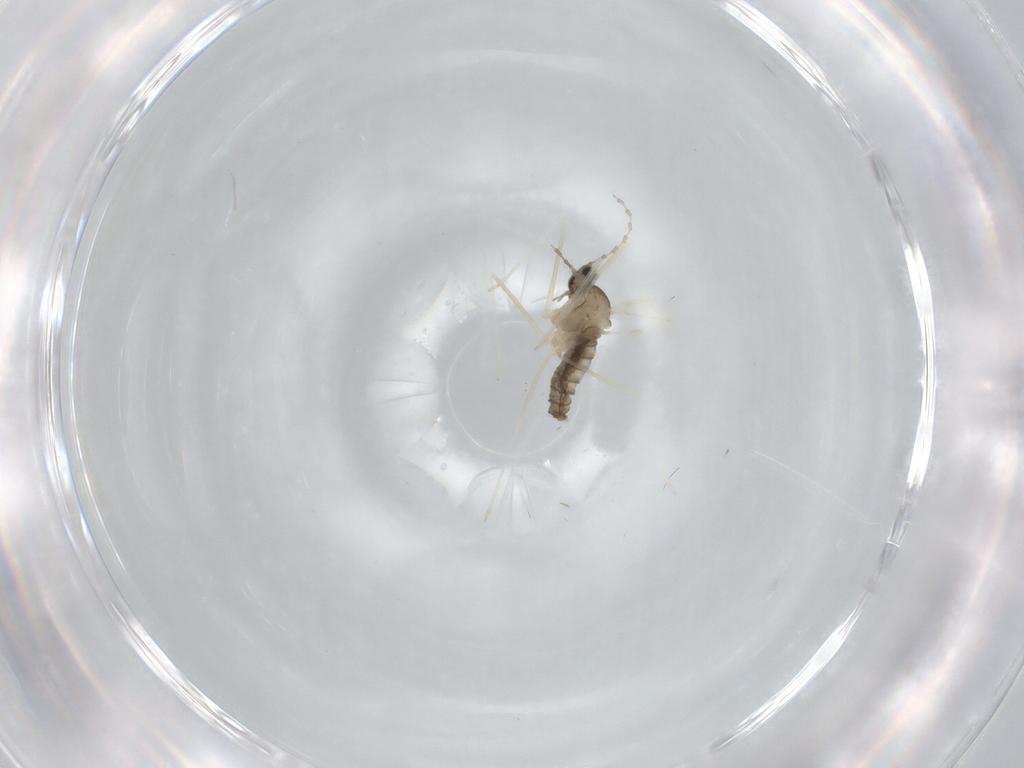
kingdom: Animalia
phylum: Arthropoda
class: Insecta
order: Diptera
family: Cecidomyiidae
